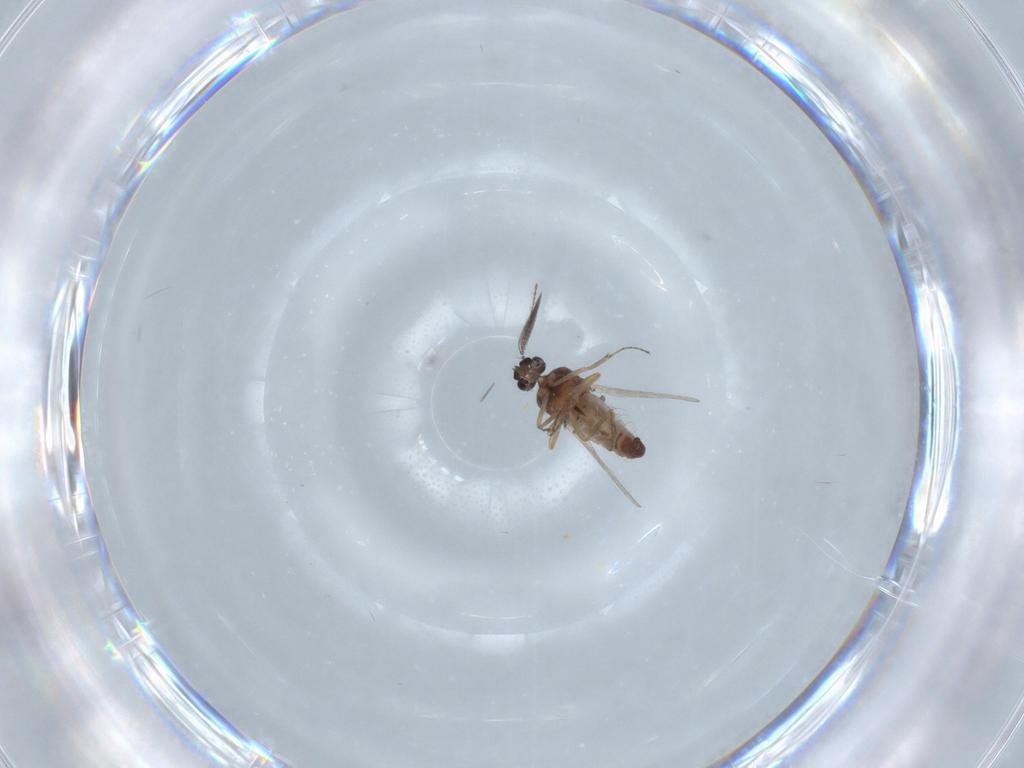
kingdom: Animalia
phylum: Arthropoda
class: Insecta
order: Diptera
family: Ceratopogonidae
